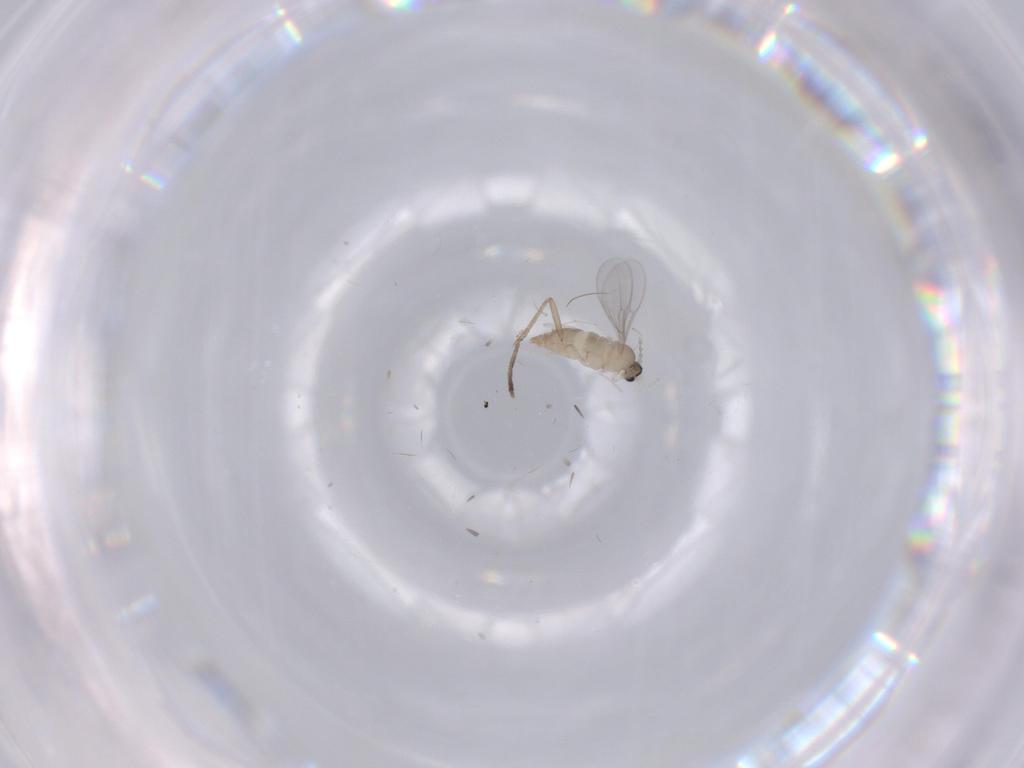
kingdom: Animalia
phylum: Arthropoda
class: Insecta
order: Diptera
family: Cecidomyiidae
